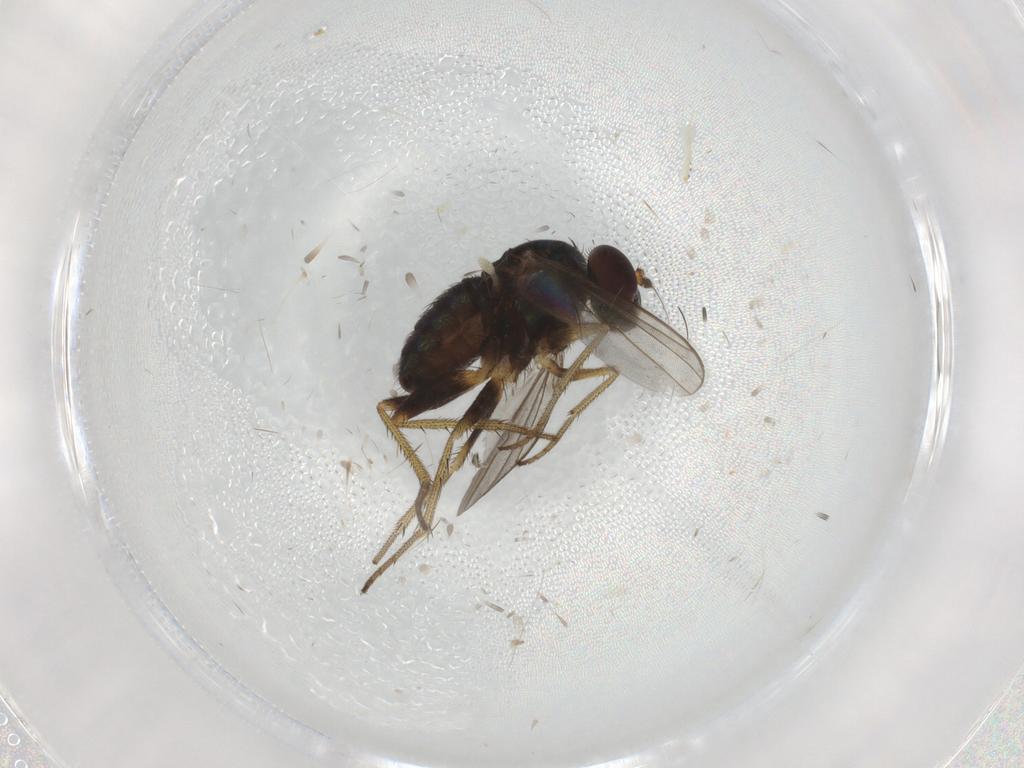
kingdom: Animalia
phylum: Arthropoda
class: Insecta
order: Diptera
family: Dolichopodidae
